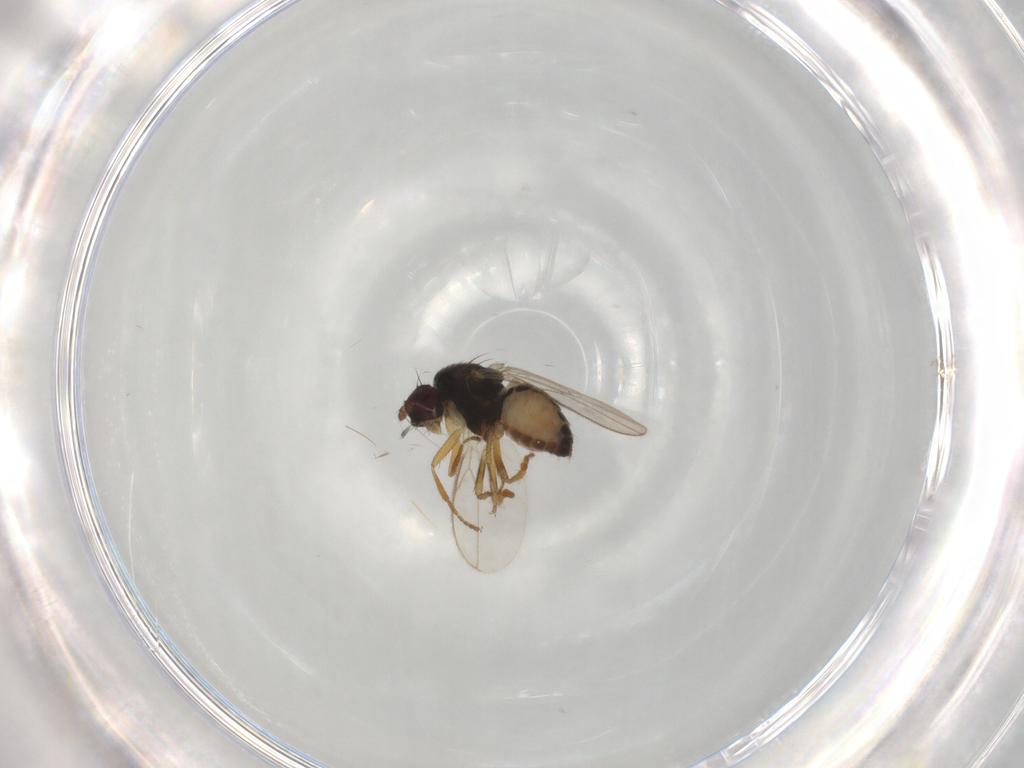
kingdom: Animalia
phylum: Arthropoda
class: Insecta
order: Diptera
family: Sphaeroceridae
